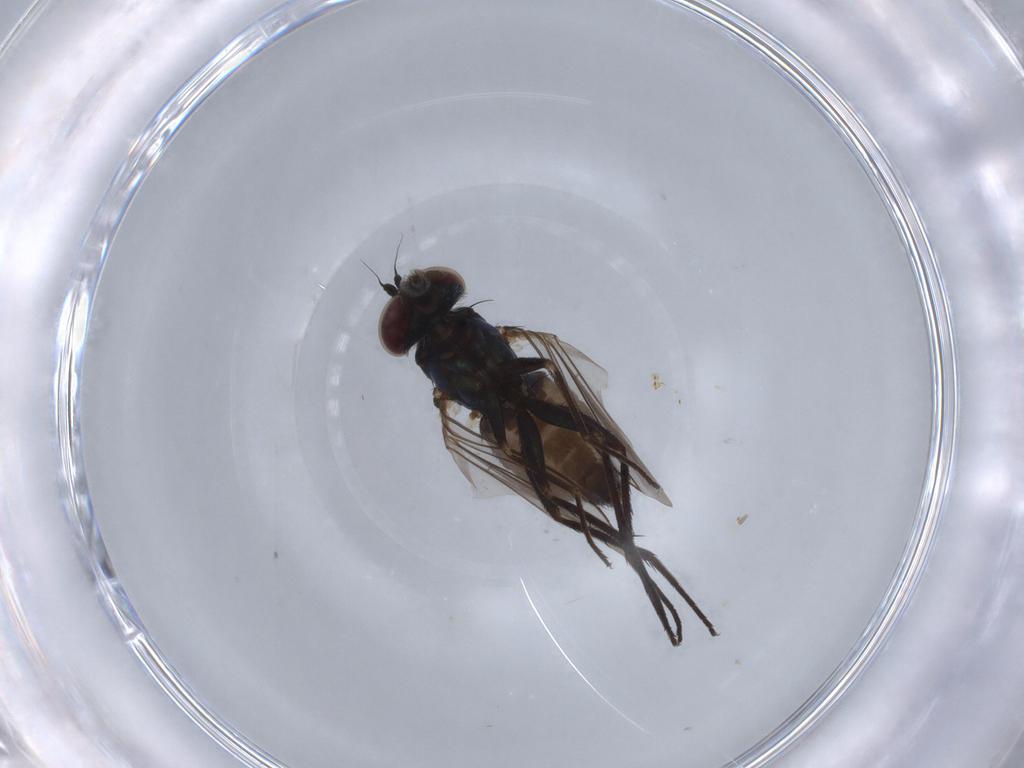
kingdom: Animalia
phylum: Arthropoda
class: Insecta
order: Diptera
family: Dolichopodidae
